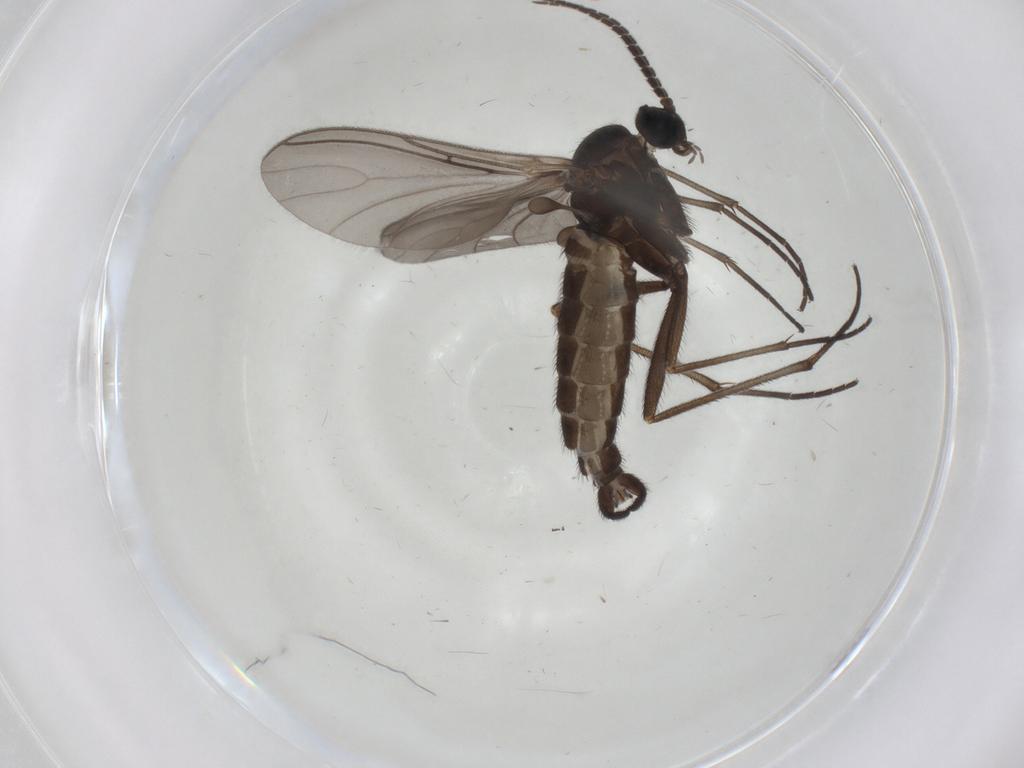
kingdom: Animalia
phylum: Arthropoda
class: Insecta
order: Diptera
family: Sciaridae
